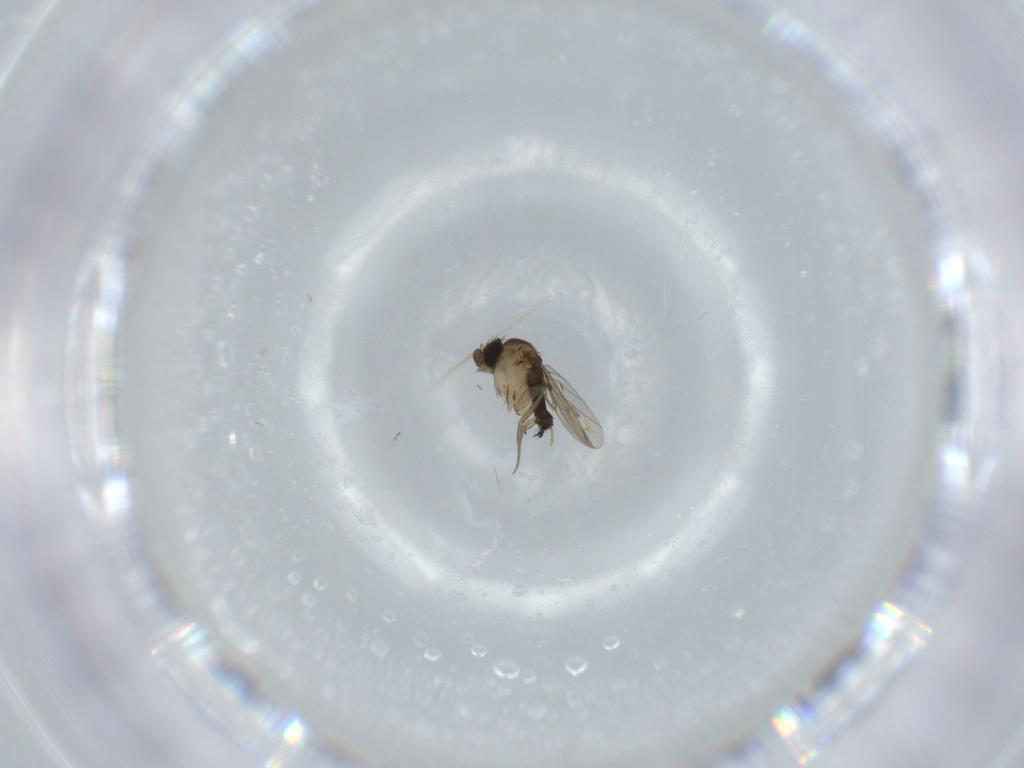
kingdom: Animalia
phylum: Arthropoda
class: Insecta
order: Diptera
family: Phoridae
